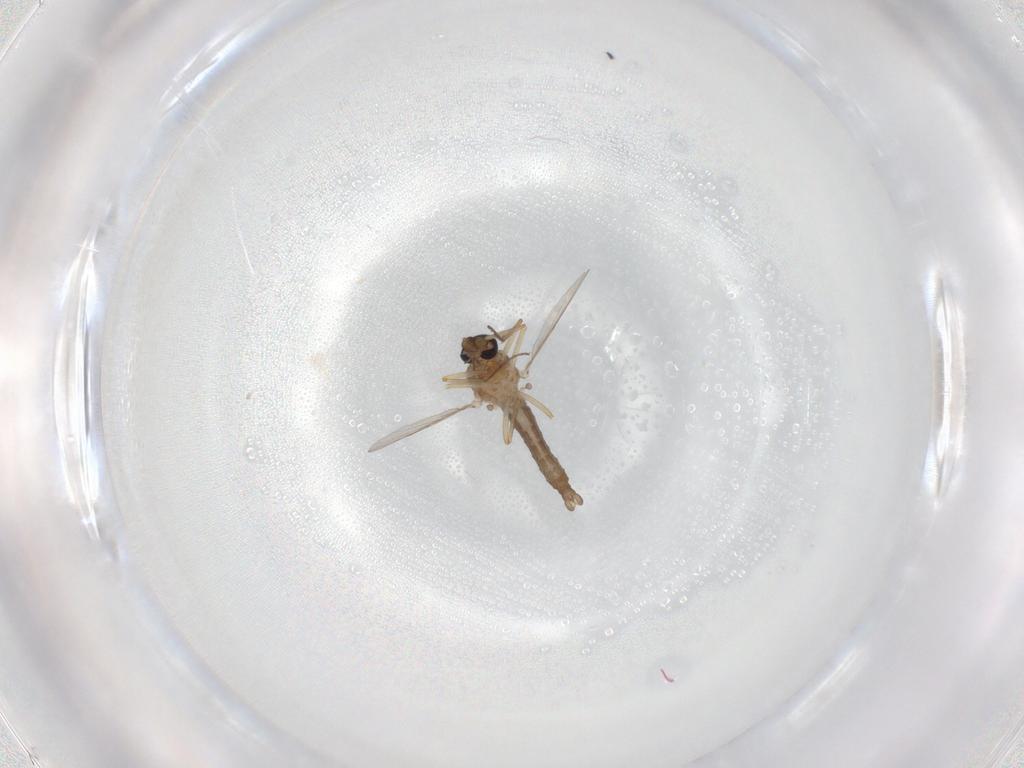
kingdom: Animalia
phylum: Arthropoda
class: Insecta
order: Diptera
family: Ceratopogonidae
